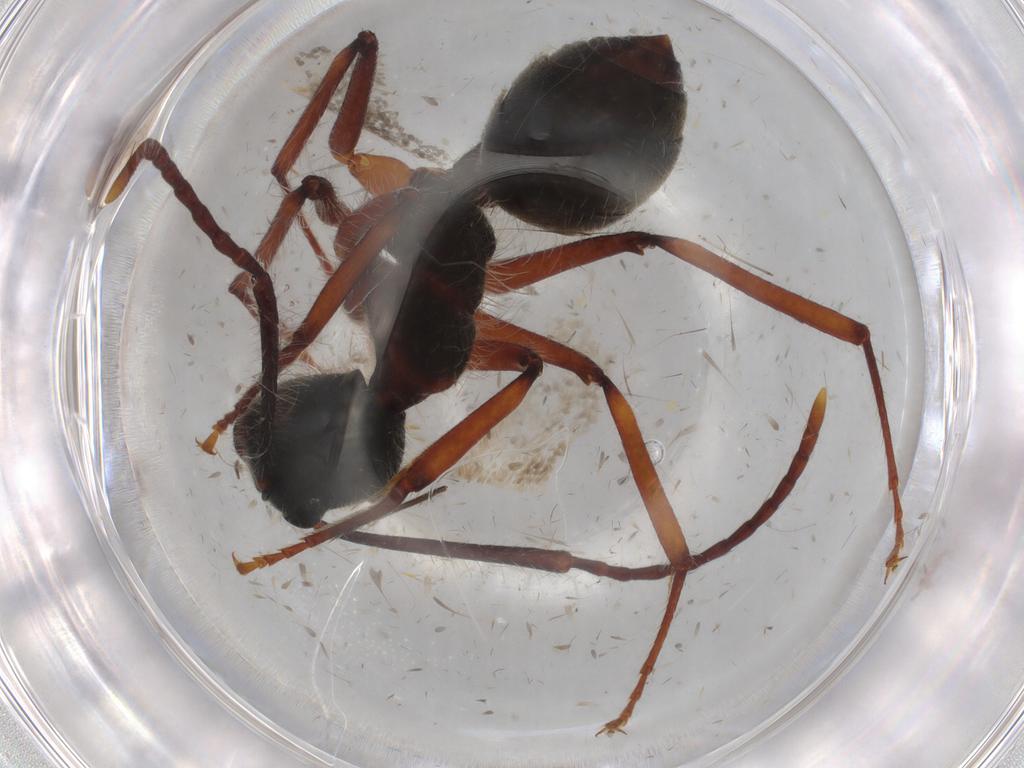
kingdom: Animalia
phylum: Arthropoda
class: Insecta
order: Hymenoptera
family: Formicidae
